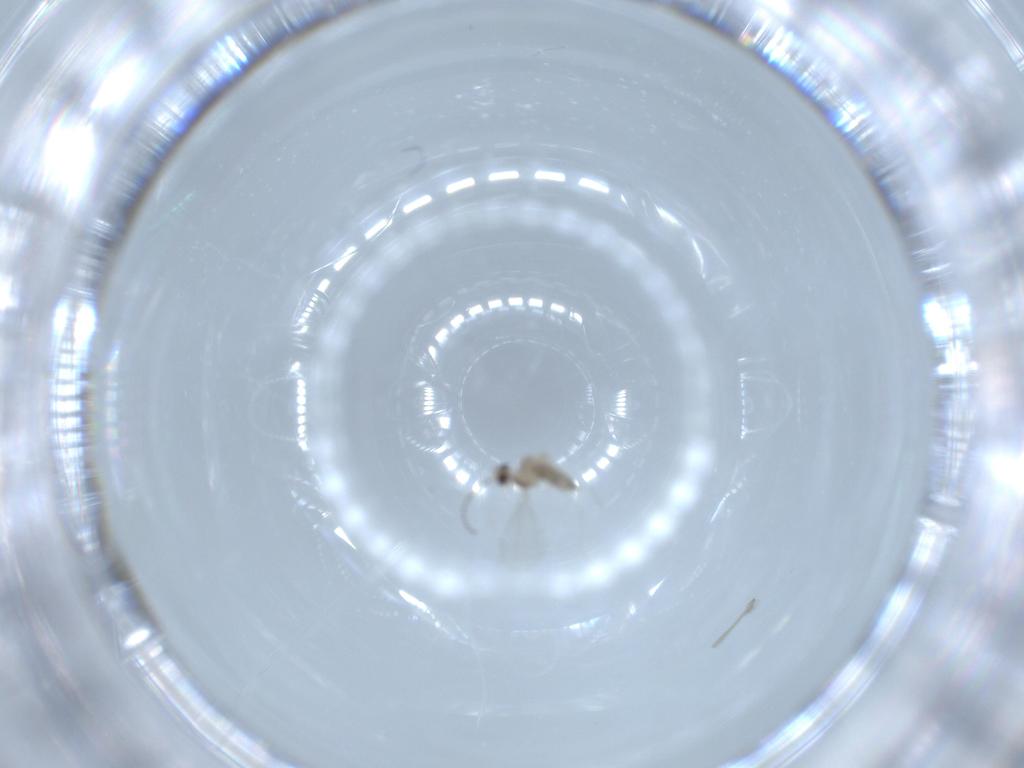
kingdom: Animalia
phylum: Arthropoda
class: Insecta
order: Diptera
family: Cecidomyiidae
